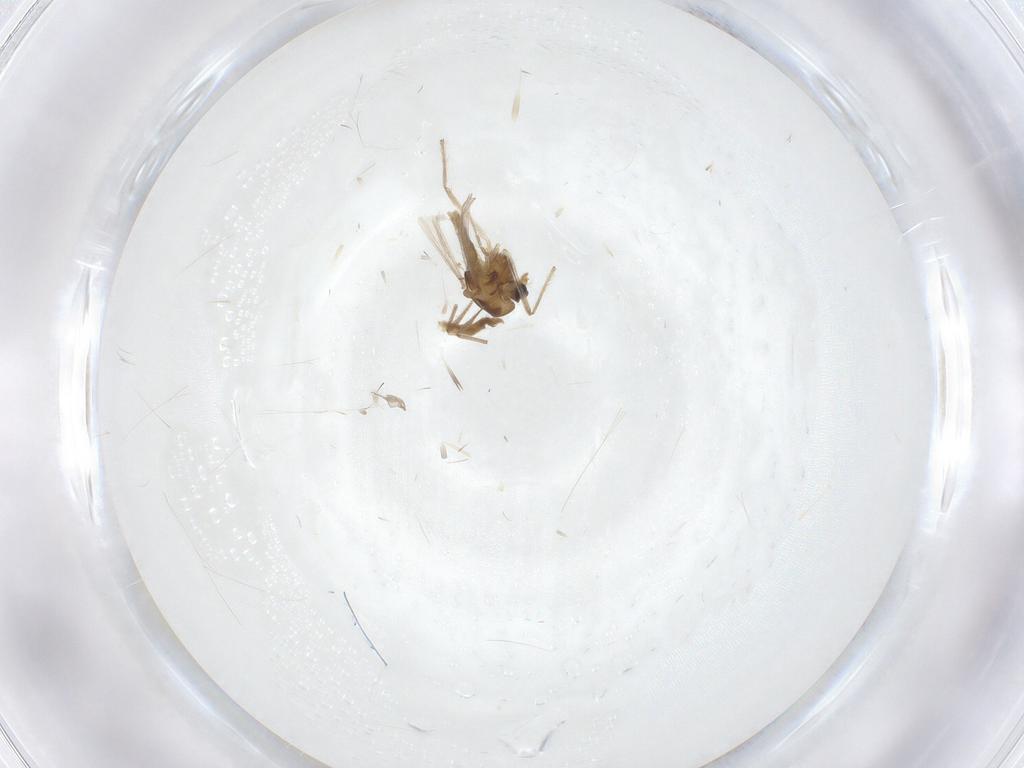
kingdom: Animalia
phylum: Arthropoda
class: Insecta
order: Diptera
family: Chironomidae
